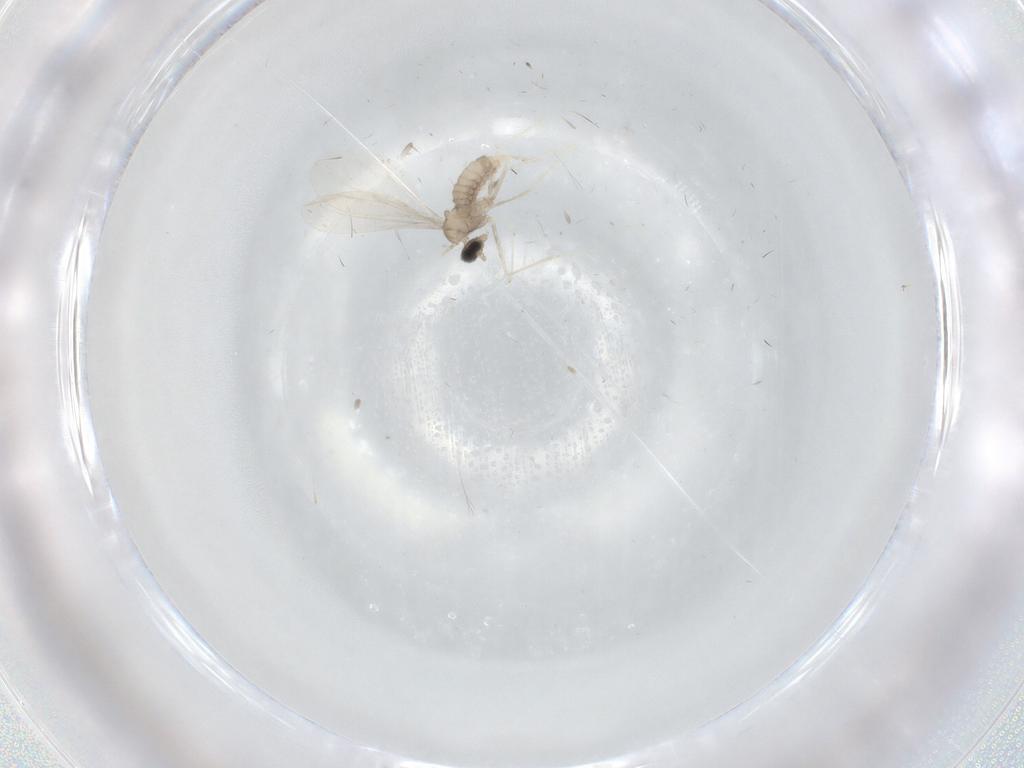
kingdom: Animalia
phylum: Arthropoda
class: Insecta
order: Diptera
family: Cecidomyiidae
